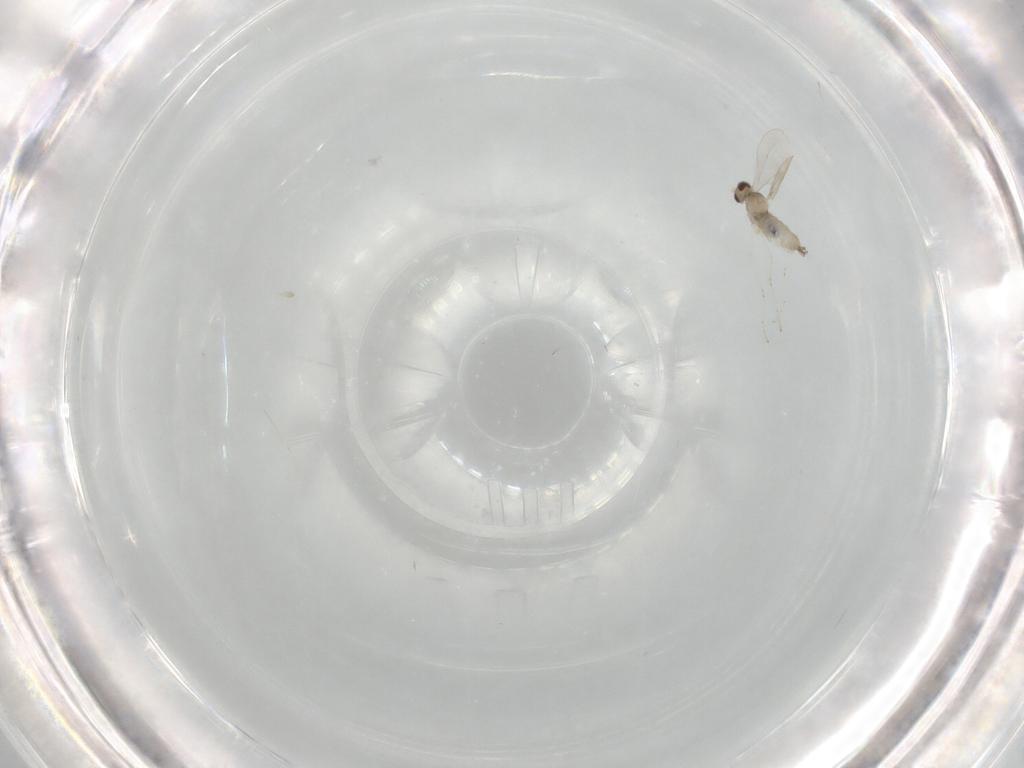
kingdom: Animalia
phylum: Arthropoda
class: Insecta
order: Diptera
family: Cecidomyiidae
